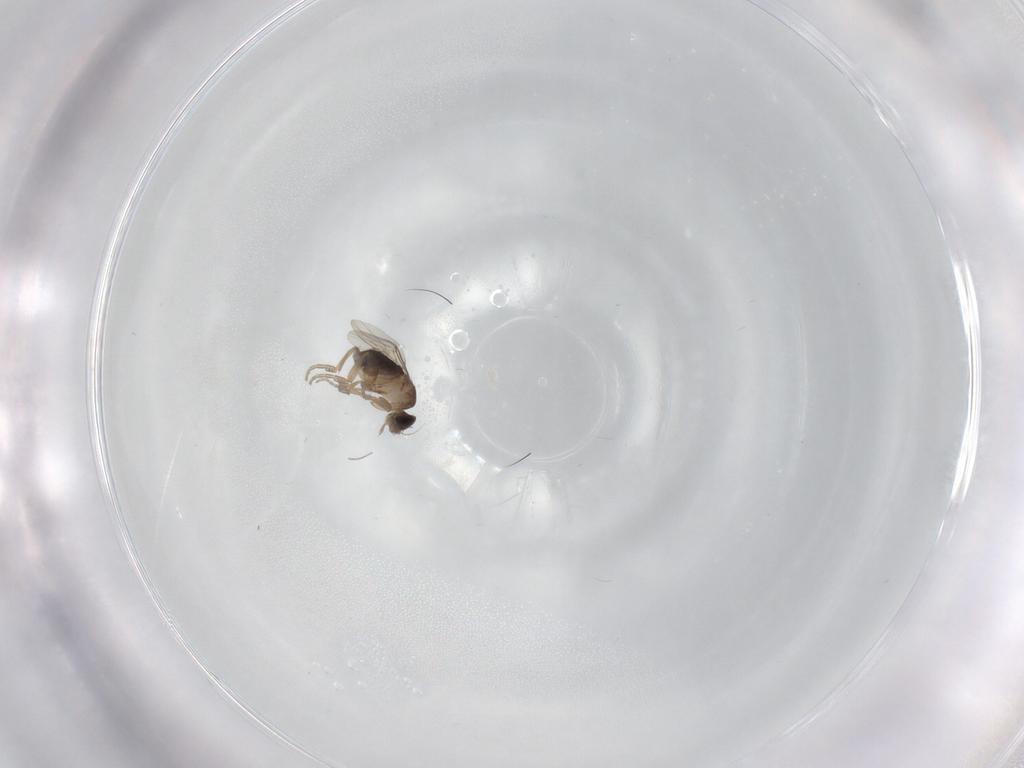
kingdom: Animalia
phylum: Arthropoda
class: Insecta
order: Diptera
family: Phoridae
